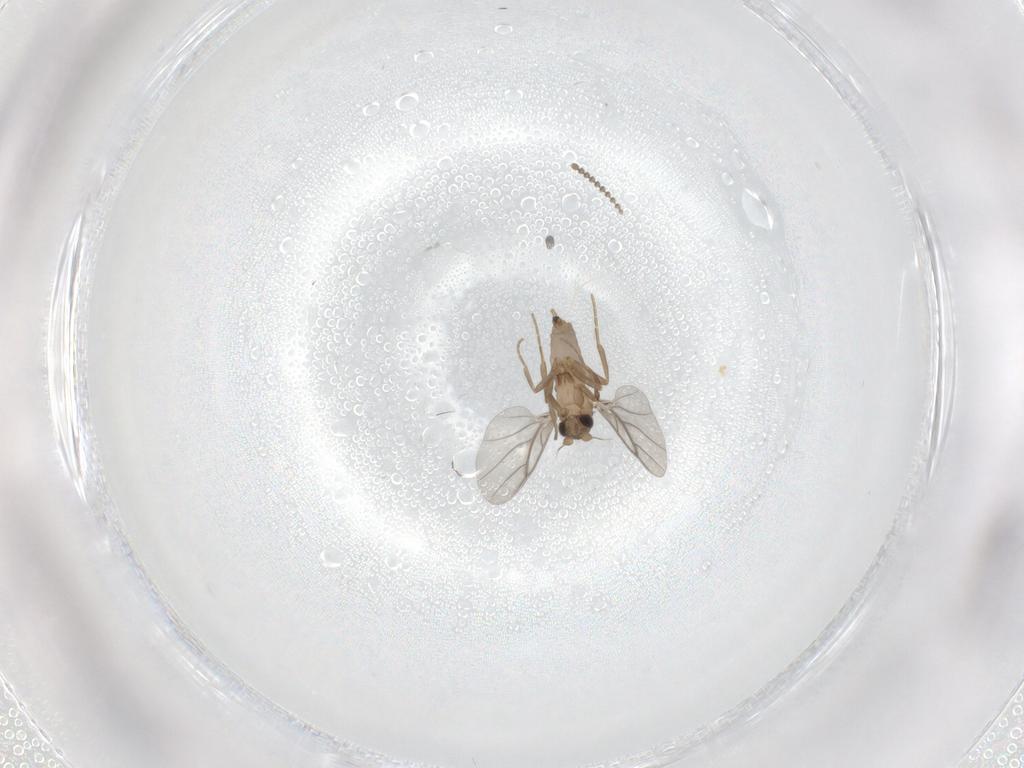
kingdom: Animalia
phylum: Arthropoda
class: Insecta
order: Diptera
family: Psychodidae
